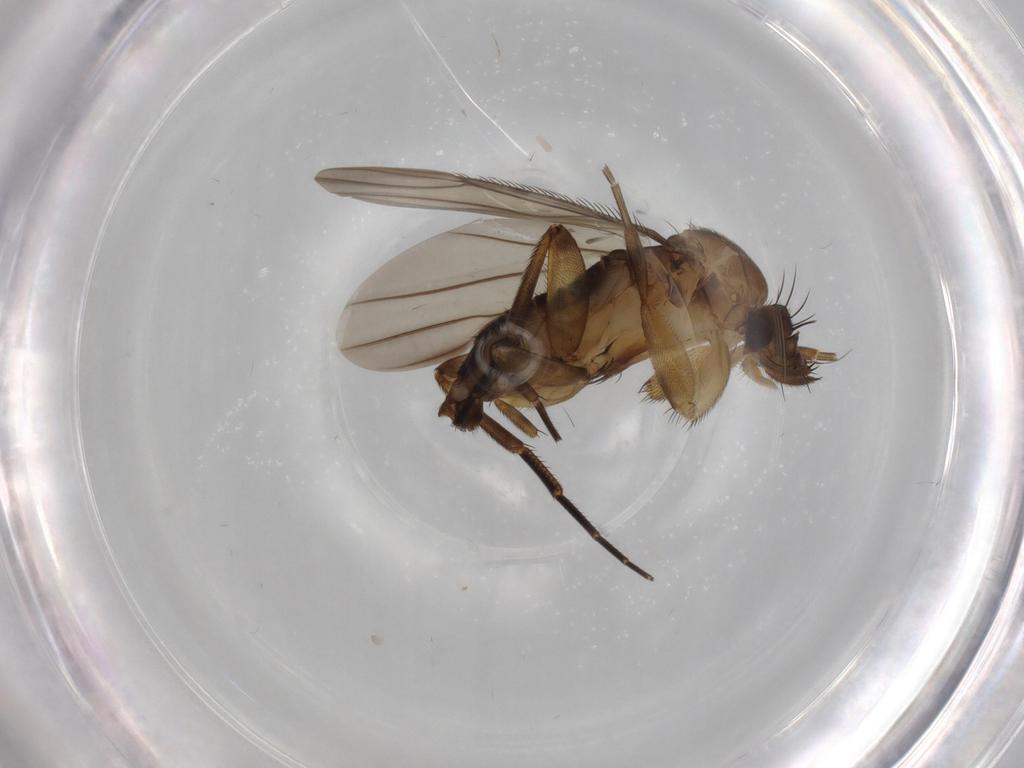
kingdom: Animalia
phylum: Arthropoda
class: Insecta
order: Diptera
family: Phoridae
